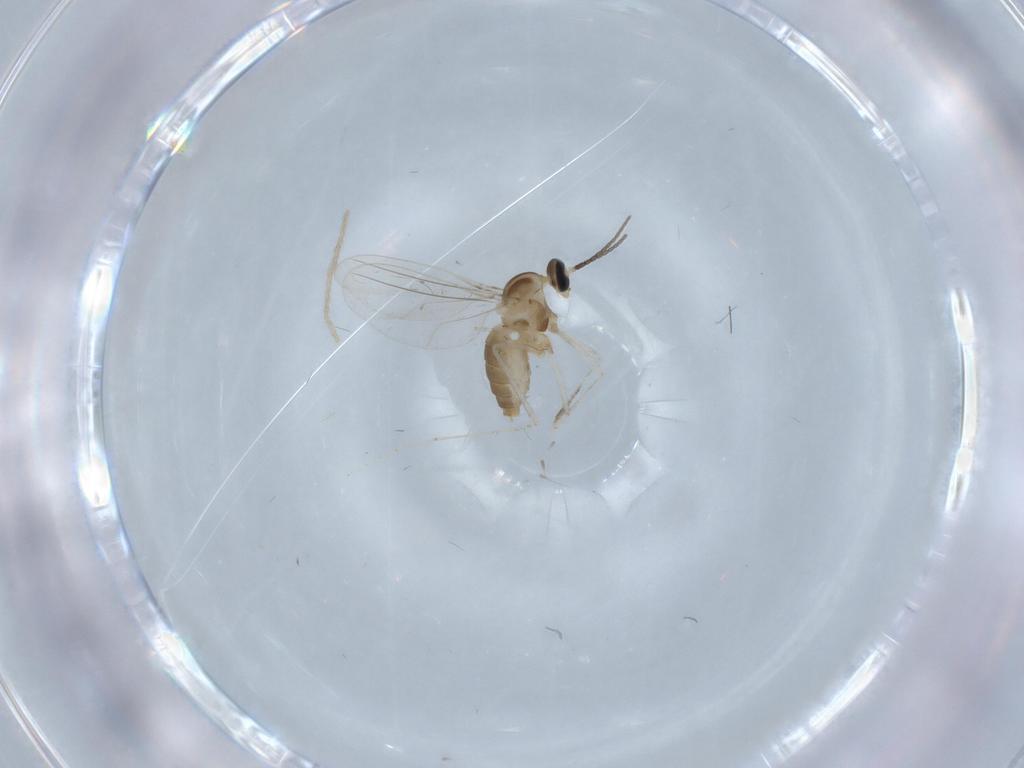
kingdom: Animalia
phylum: Arthropoda
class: Insecta
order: Diptera
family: Cecidomyiidae
